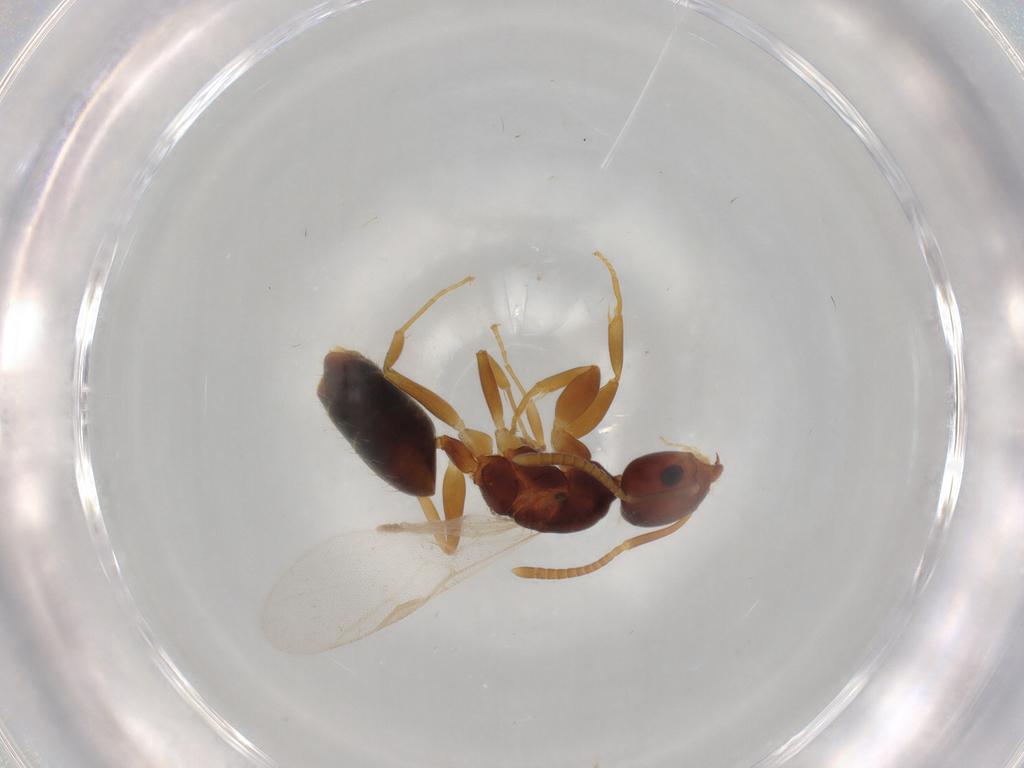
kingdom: Animalia
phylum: Arthropoda
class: Insecta
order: Hymenoptera
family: Formicidae
